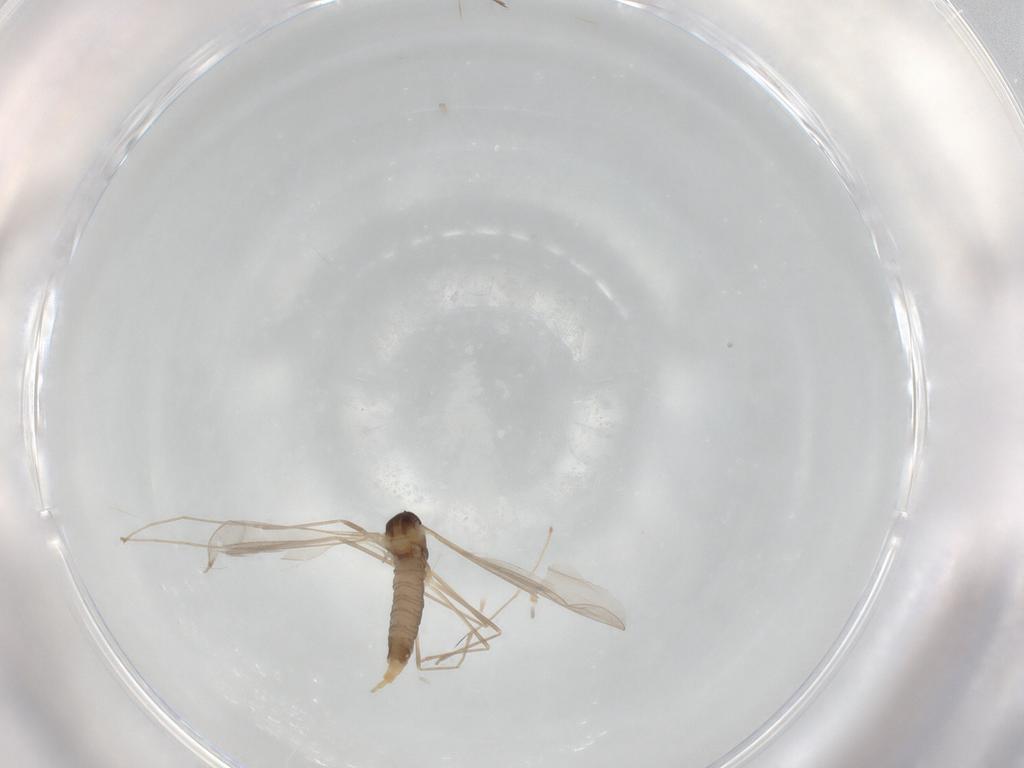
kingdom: Animalia
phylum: Arthropoda
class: Insecta
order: Diptera
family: Cecidomyiidae
